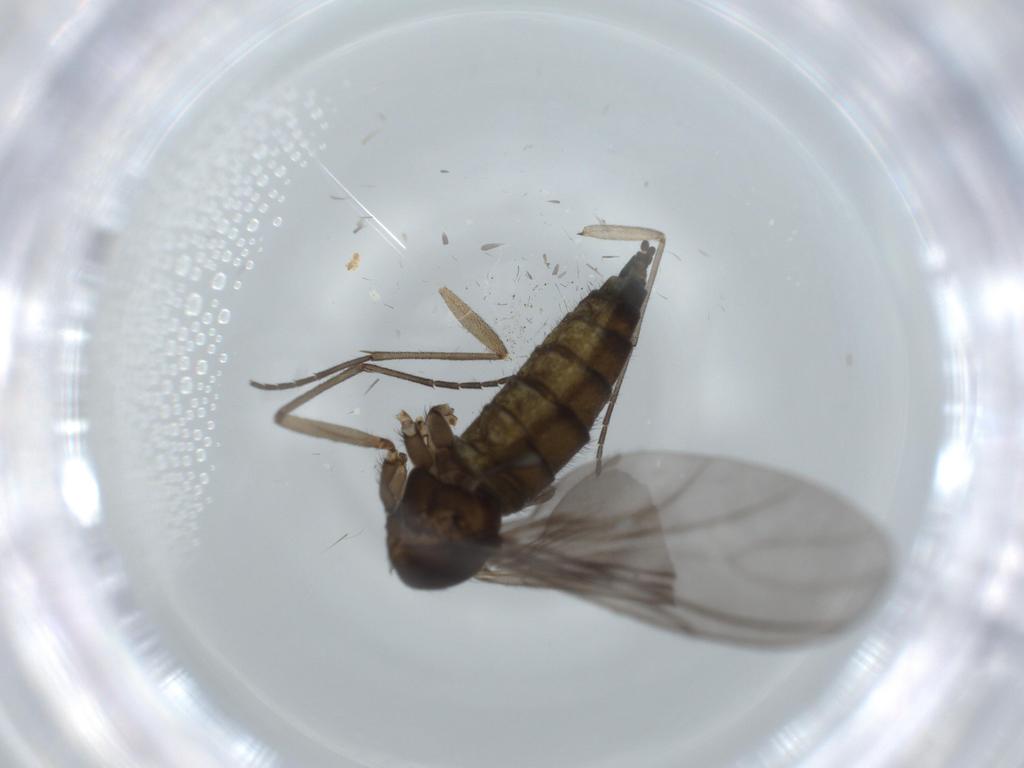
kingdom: Animalia
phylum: Arthropoda
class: Insecta
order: Diptera
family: Sciaridae
